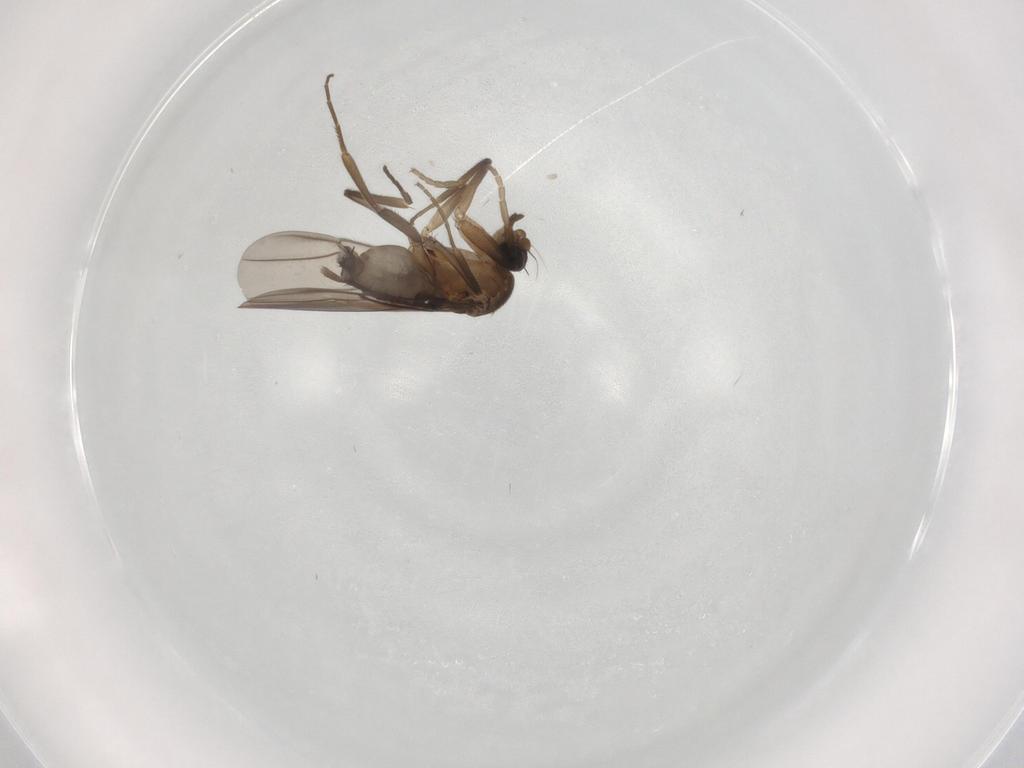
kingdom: Animalia
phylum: Arthropoda
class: Insecta
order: Diptera
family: Phoridae
